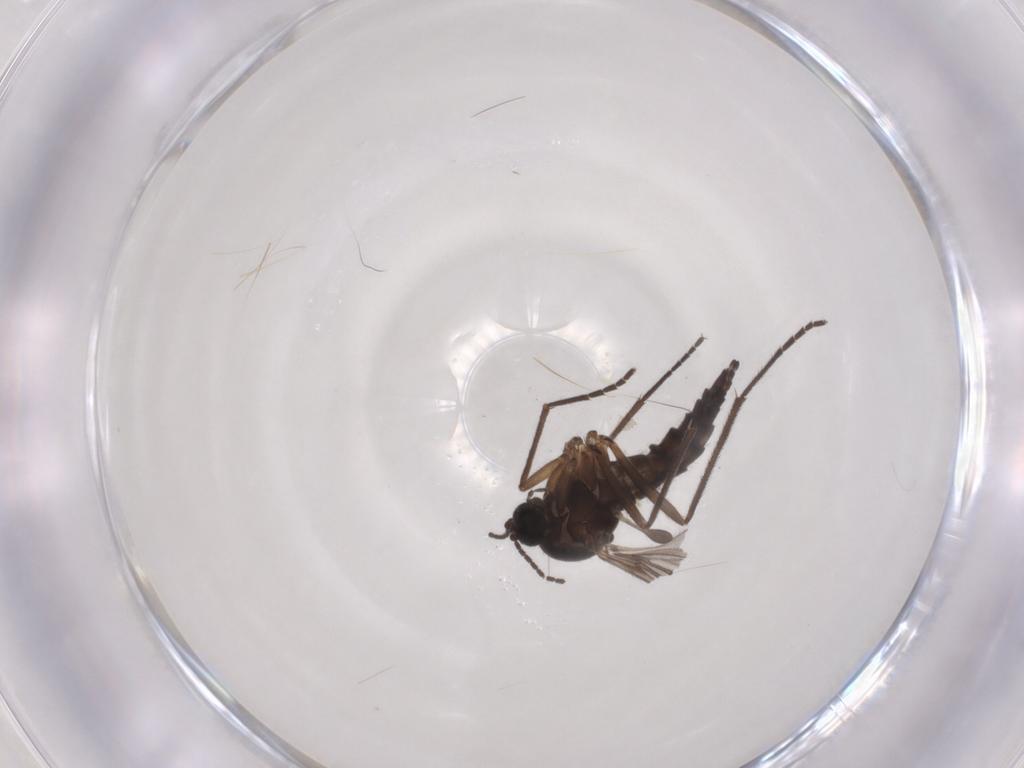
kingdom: Animalia
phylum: Arthropoda
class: Insecta
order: Diptera
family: Sciaridae
